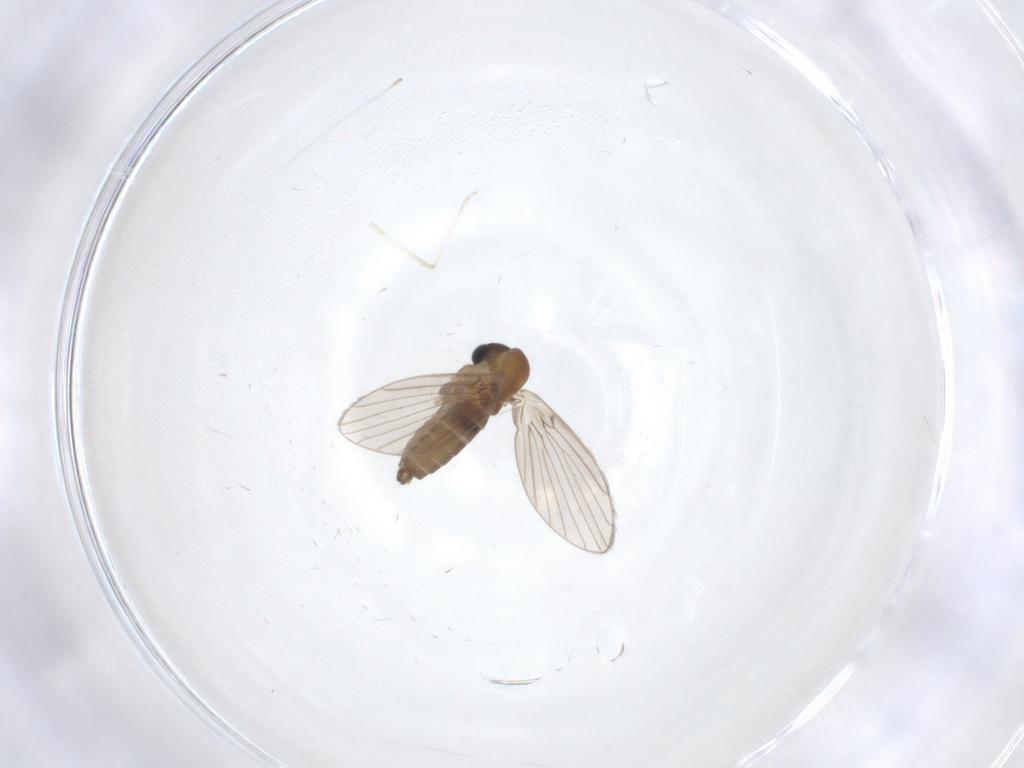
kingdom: Animalia
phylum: Arthropoda
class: Insecta
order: Diptera
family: Cecidomyiidae
